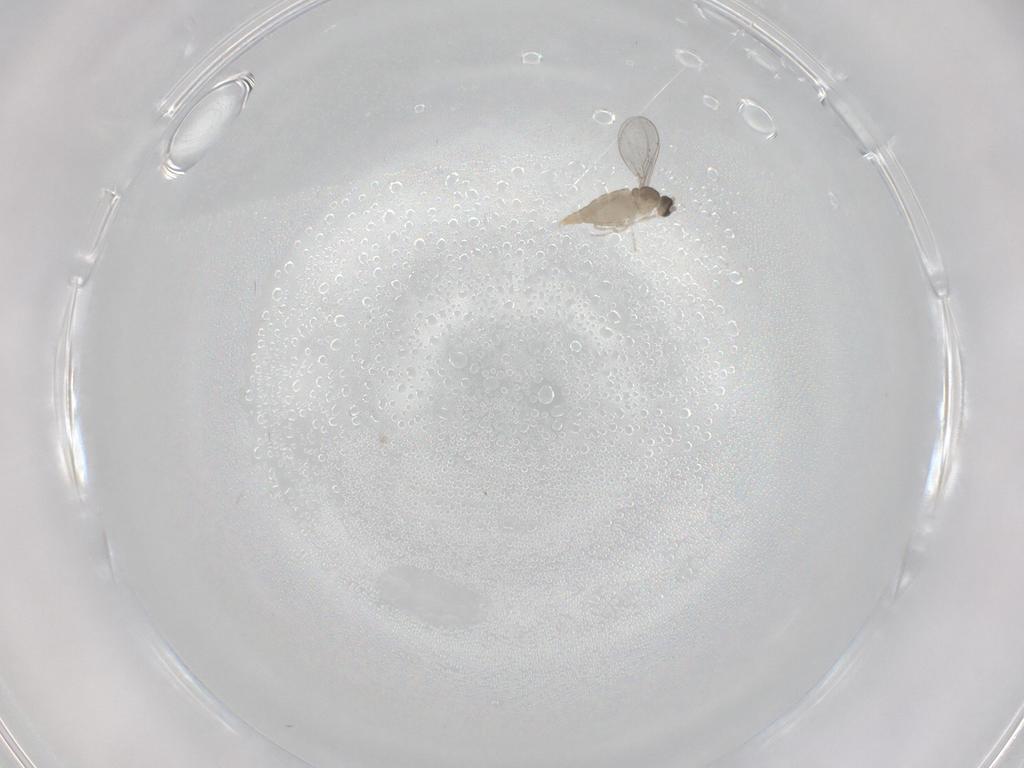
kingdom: Animalia
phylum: Arthropoda
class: Insecta
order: Diptera
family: Cecidomyiidae
